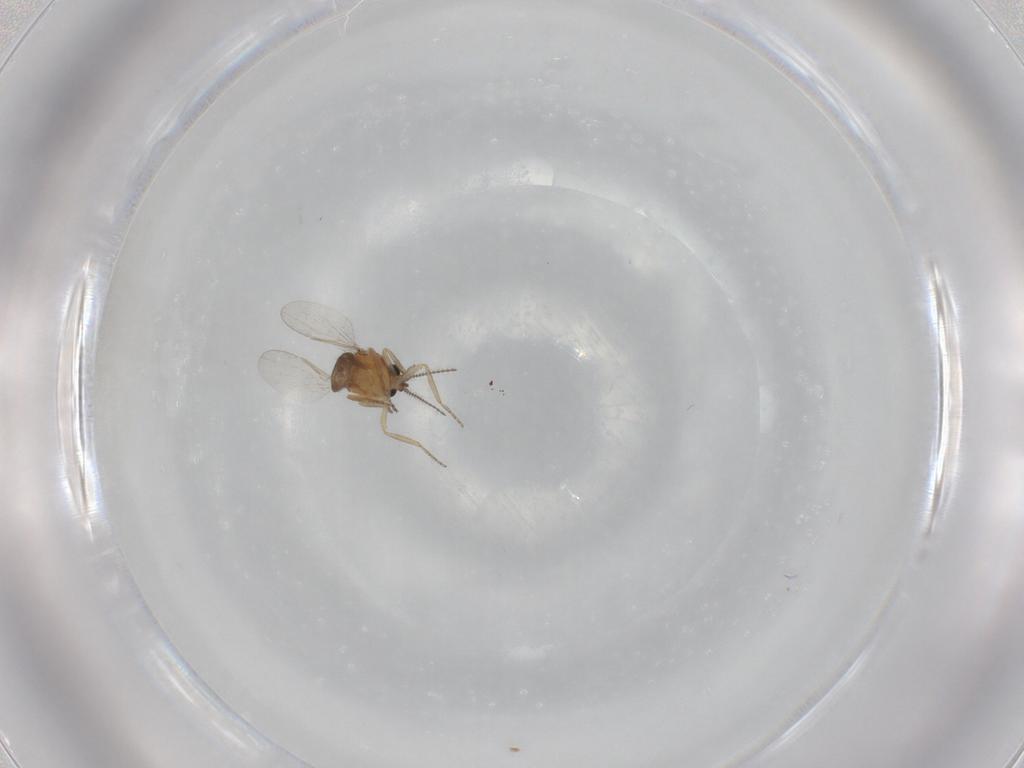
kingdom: Animalia
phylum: Arthropoda
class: Insecta
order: Diptera
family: Ceratopogonidae
